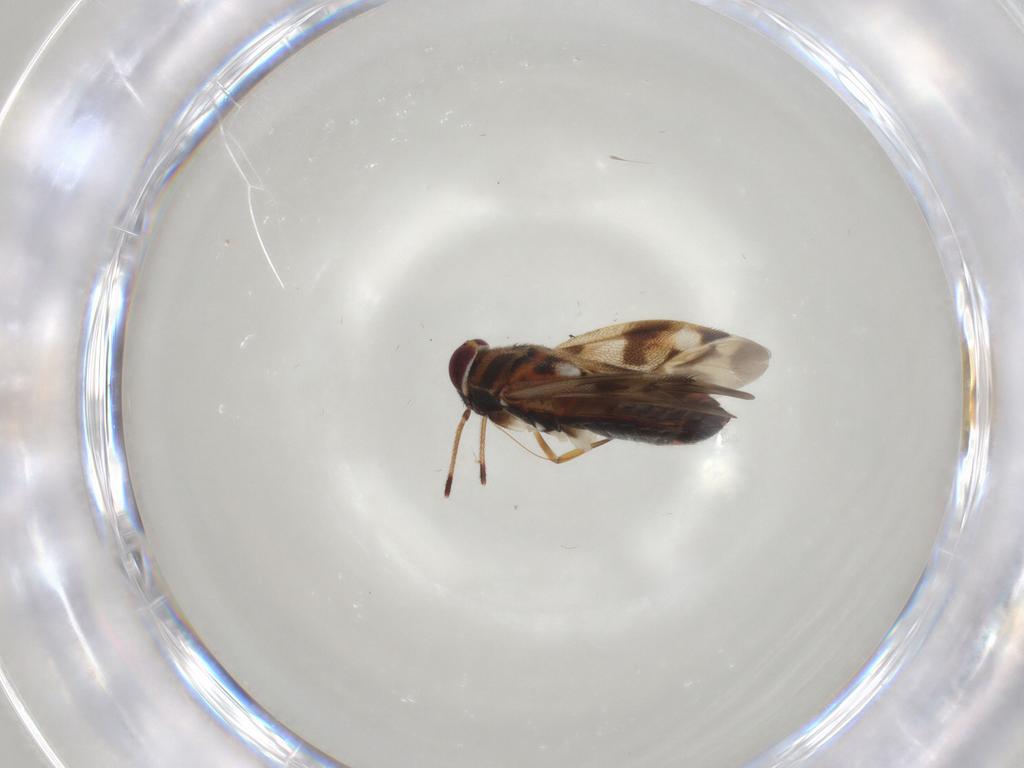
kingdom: Animalia
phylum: Arthropoda
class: Insecta
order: Hemiptera
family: Miridae
